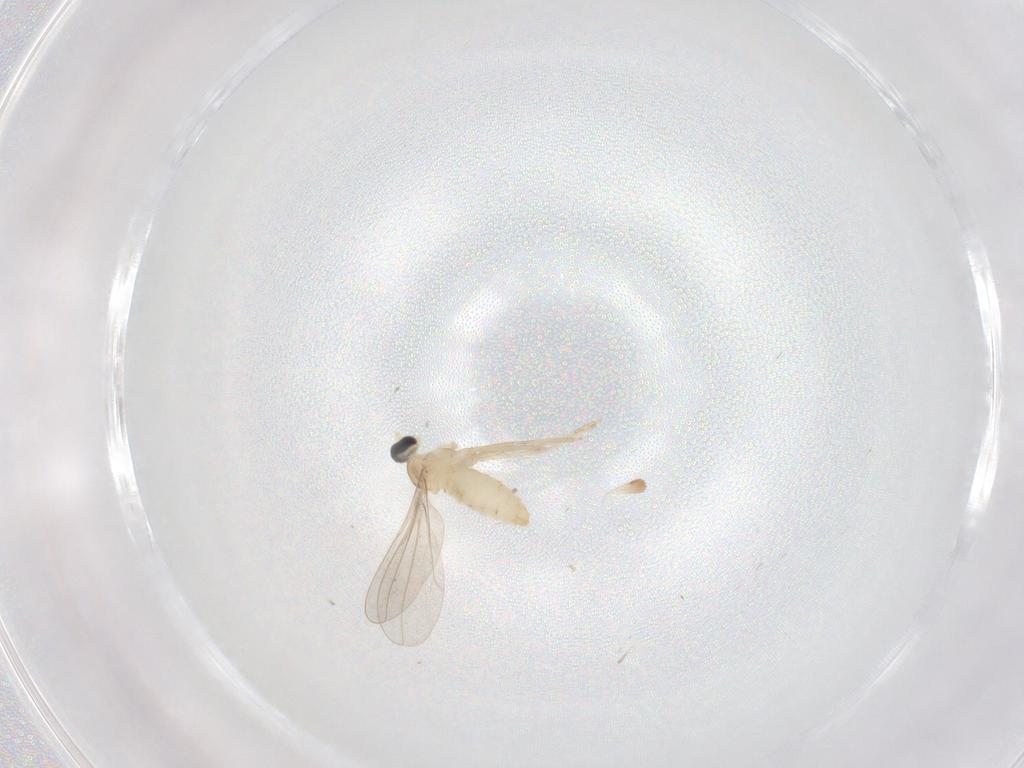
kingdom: Animalia
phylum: Arthropoda
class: Insecta
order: Diptera
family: Cecidomyiidae
